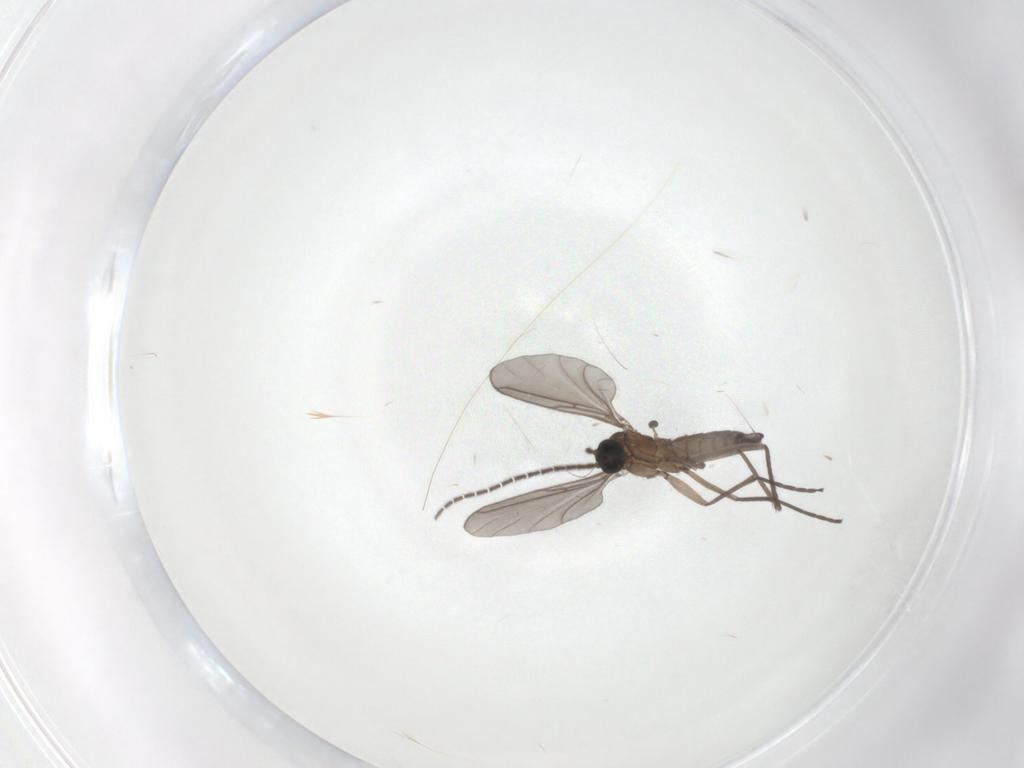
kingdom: Animalia
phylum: Arthropoda
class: Insecta
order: Diptera
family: Sciaridae
